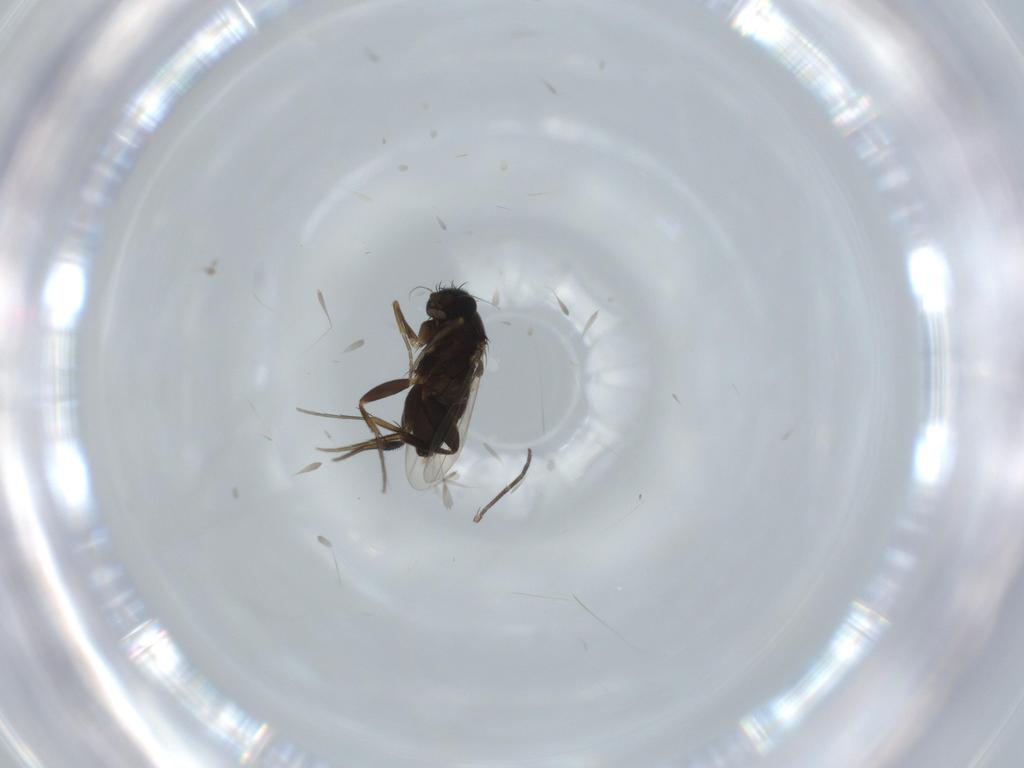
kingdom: Animalia
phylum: Arthropoda
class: Insecta
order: Diptera
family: Phoridae
